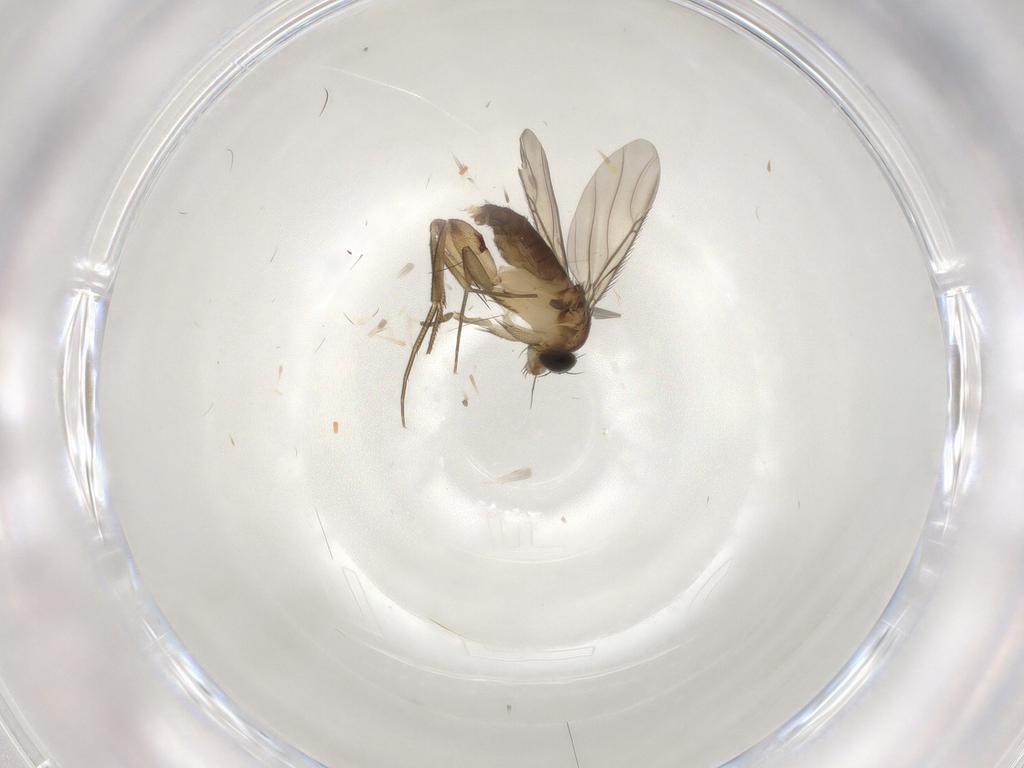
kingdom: Animalia
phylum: Arthropoda
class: Insecta
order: Diptera
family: Phoridae
